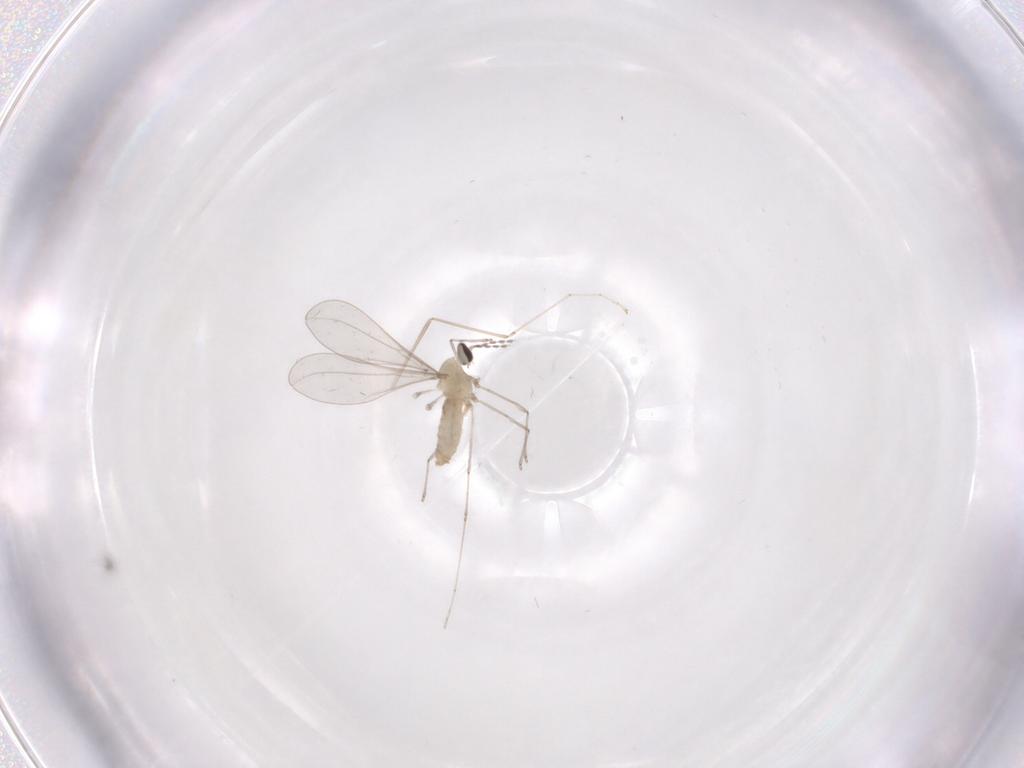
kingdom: Animalia
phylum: Arthropoda
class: Insecta
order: Diptera
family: Cecidomyiidae
